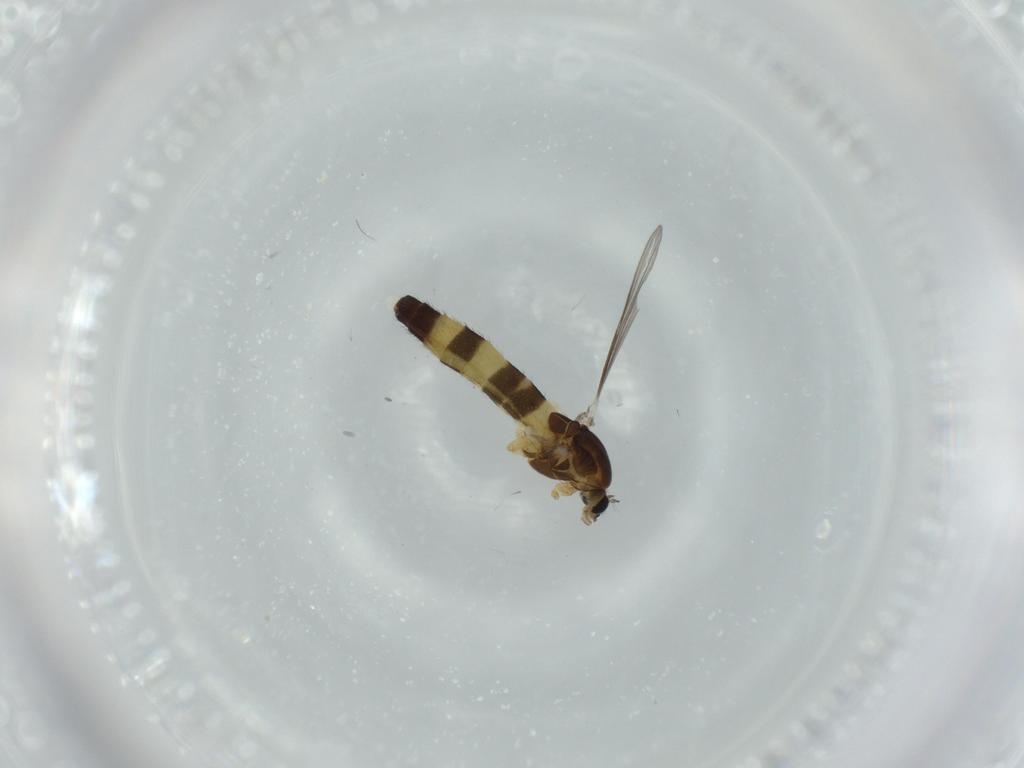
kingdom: Animalia
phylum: Arthropoda
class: Insecta
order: Diptera
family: Chironomidae
